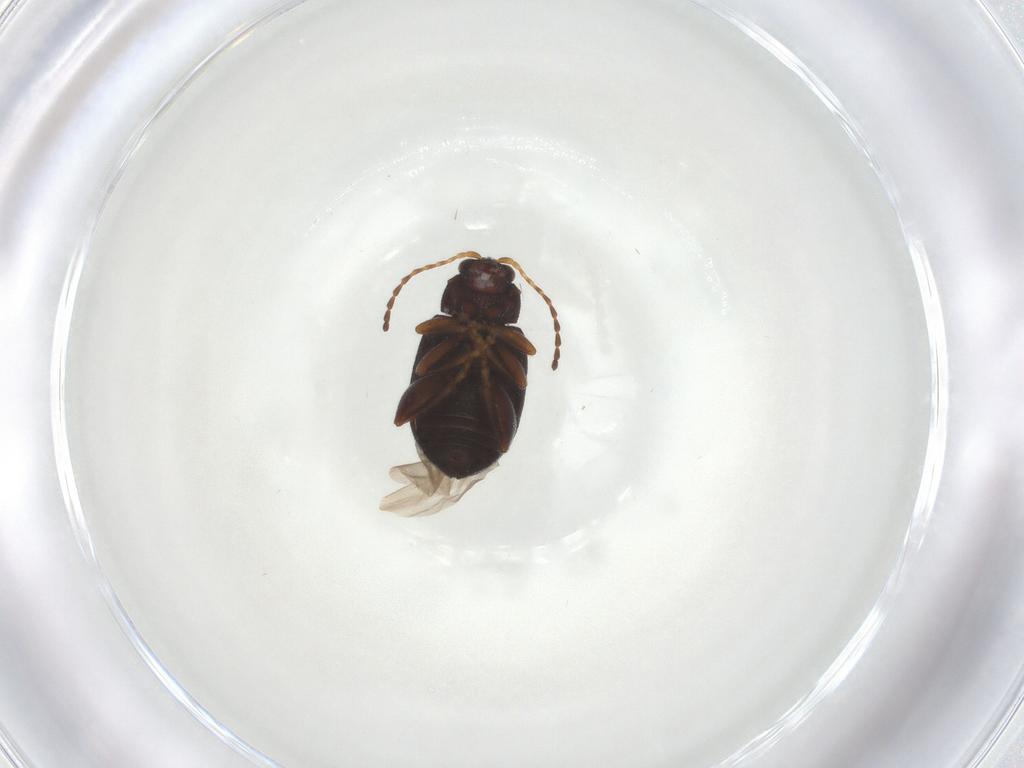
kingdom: Animalia
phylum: Arthropoda
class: Insecta
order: Coleoptera
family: Chrysomelidae
